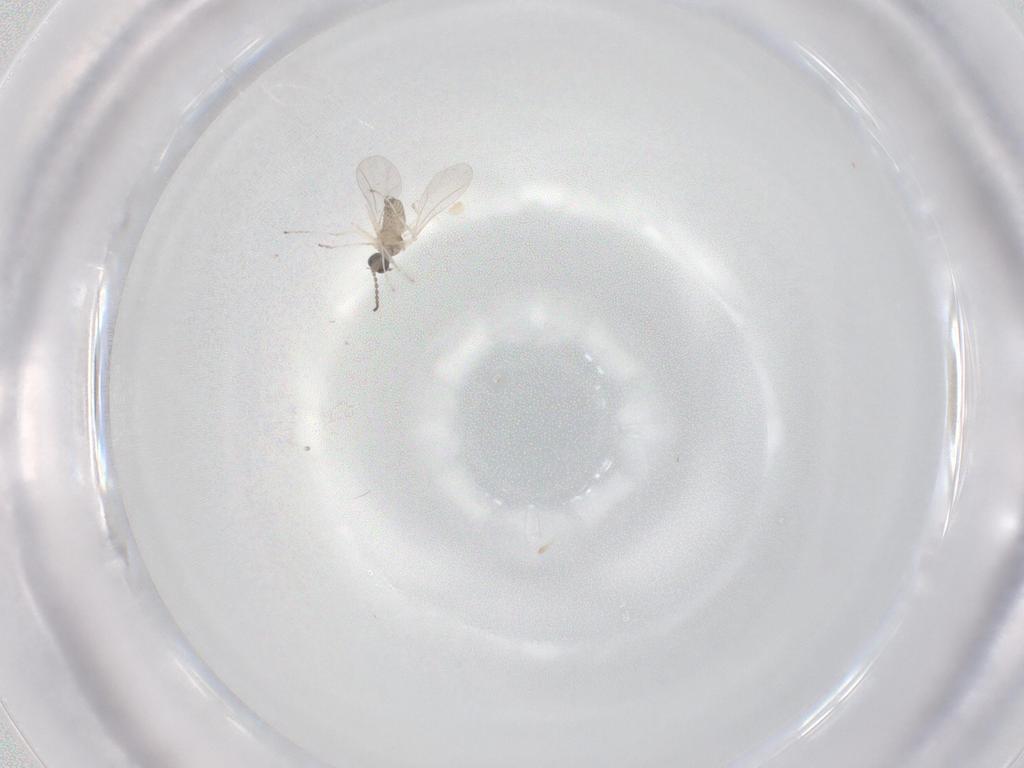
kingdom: Animalia
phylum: Arthropoda
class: Insecta
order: Diptera
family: Cecidomyiidae
